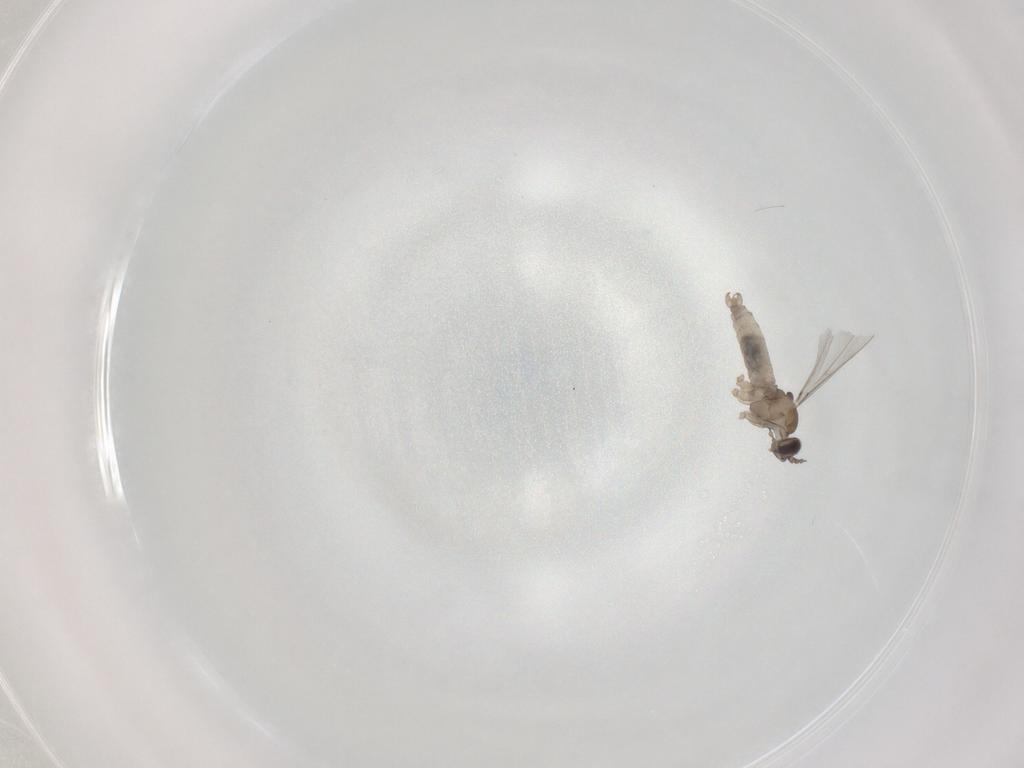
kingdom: Animalia
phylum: Arthropoda
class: Insecta
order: Diptera
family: Cecidomyiidae
